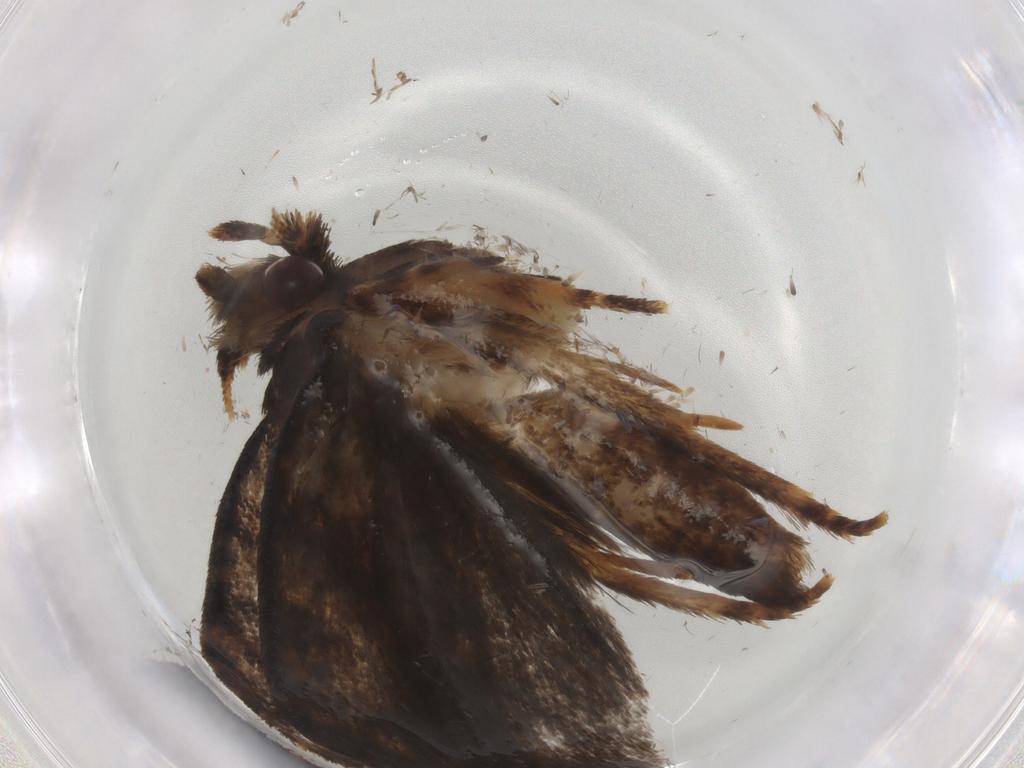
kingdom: Animalia
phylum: Arthropoda
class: Insecta
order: Lepidoptera
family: Tineidae
